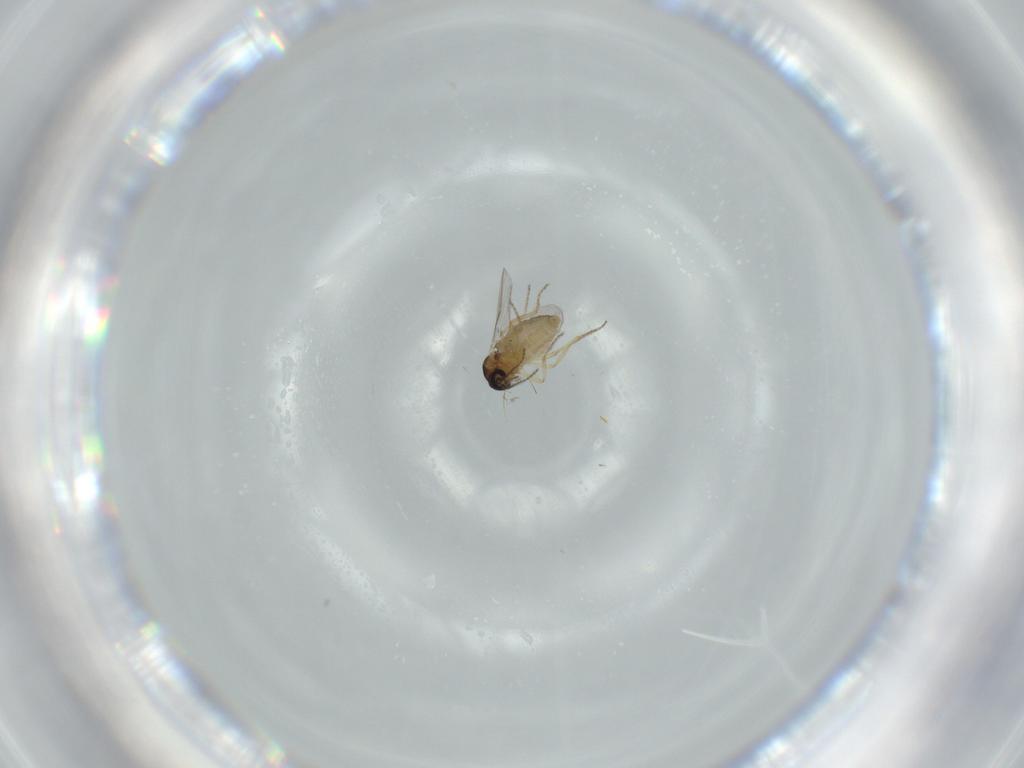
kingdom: Animalia
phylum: Arthropoda
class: Insecta
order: Diptera
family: Ceratopogonidae
